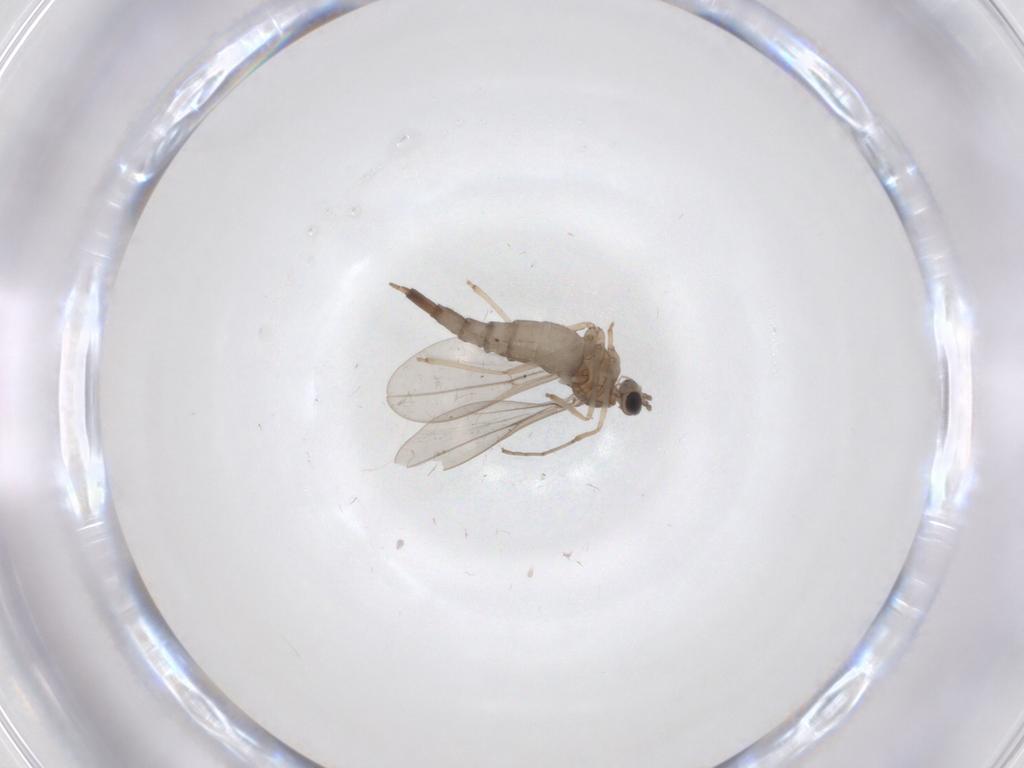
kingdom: Animalia
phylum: Arthropoda
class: Insecta
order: Diptera
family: Cecidomyiidae
